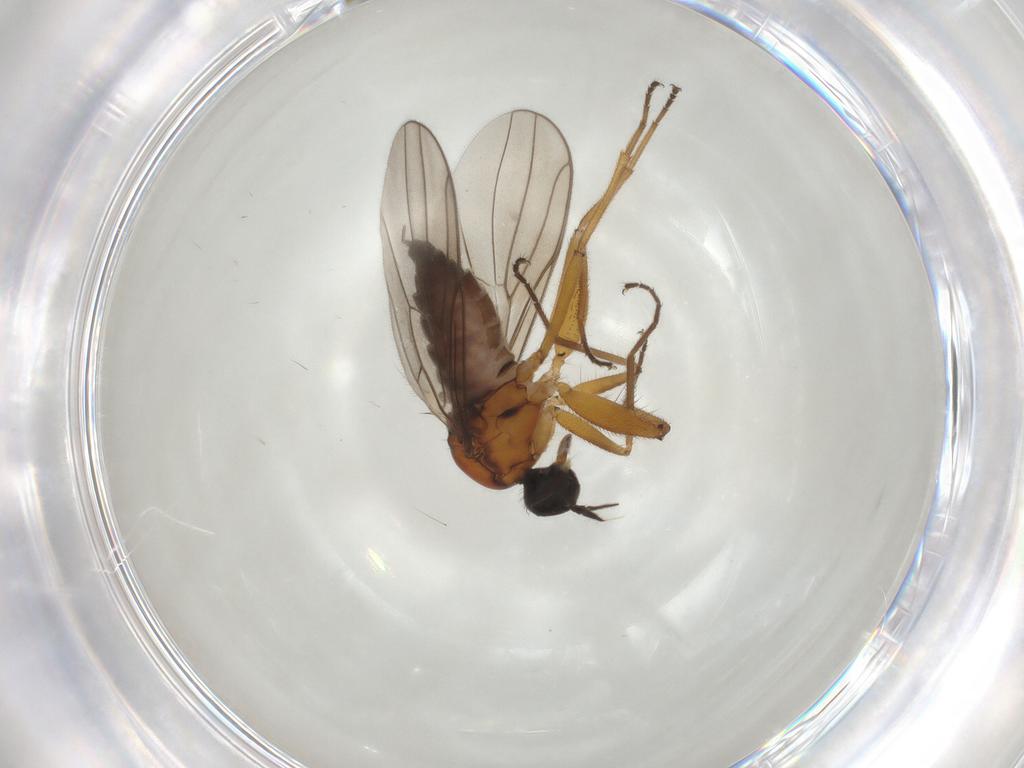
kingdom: Animalia
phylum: Arthropoda
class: Insecta
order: Diptera
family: Hybotidae
